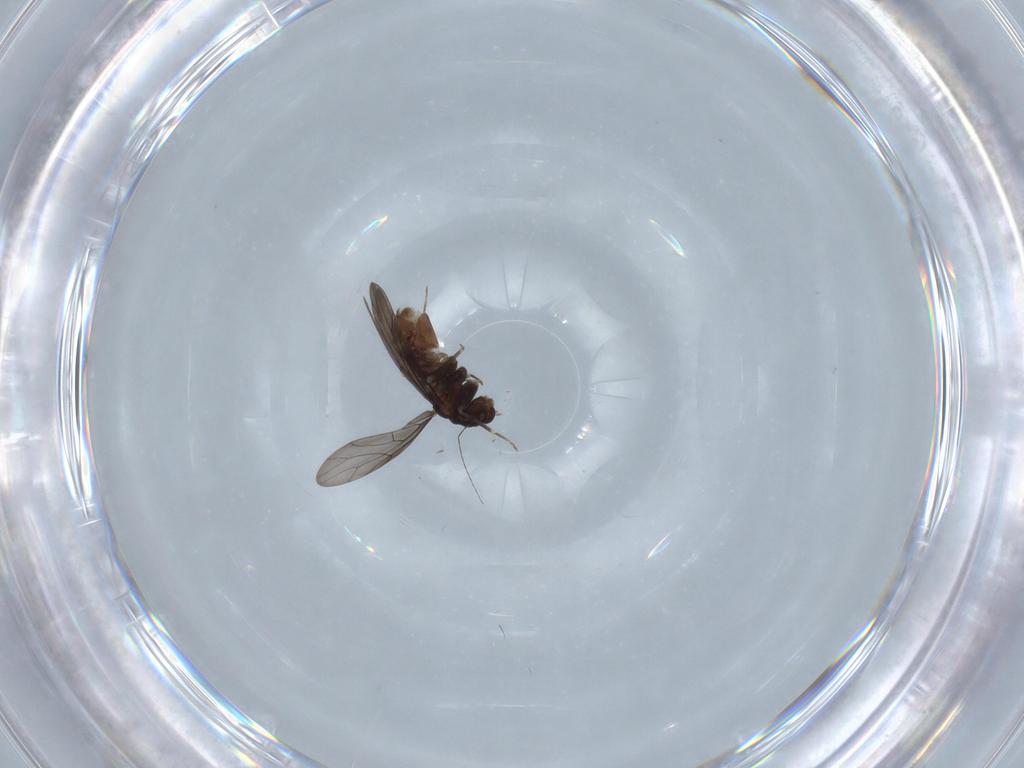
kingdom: Animalia
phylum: Arthropoda
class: Insecta
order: Psocodea
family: Lepidopsocidae
